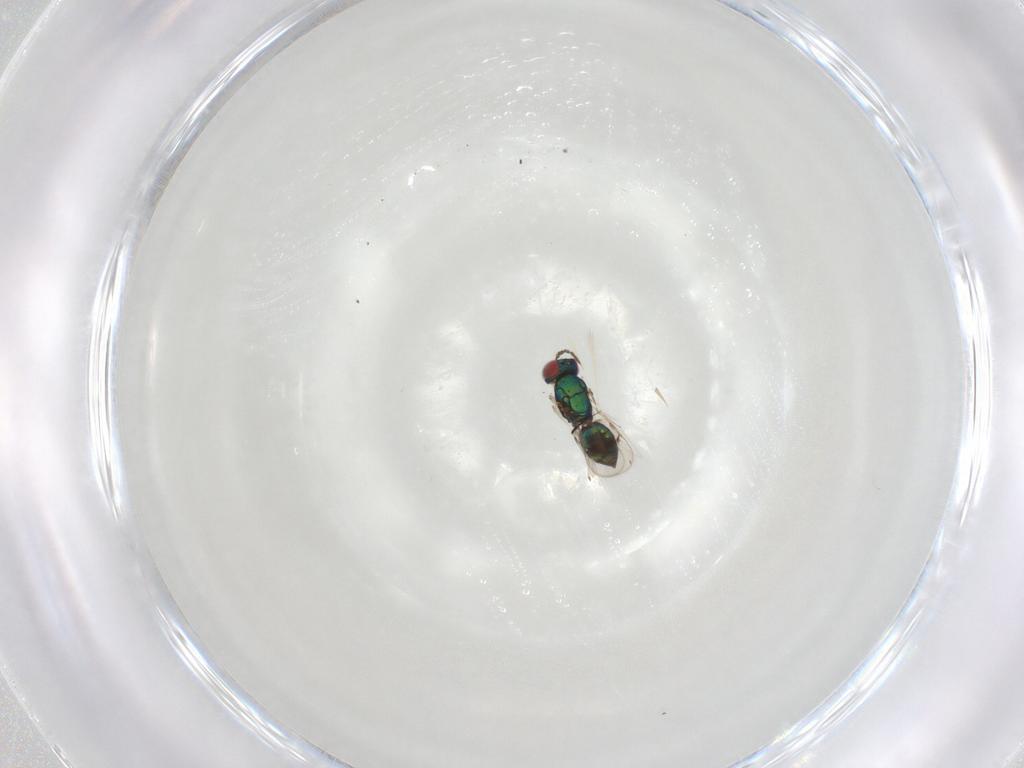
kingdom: Animalia
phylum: Arthropoda
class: Insecta
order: Hymenoptera
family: Eulophidae
